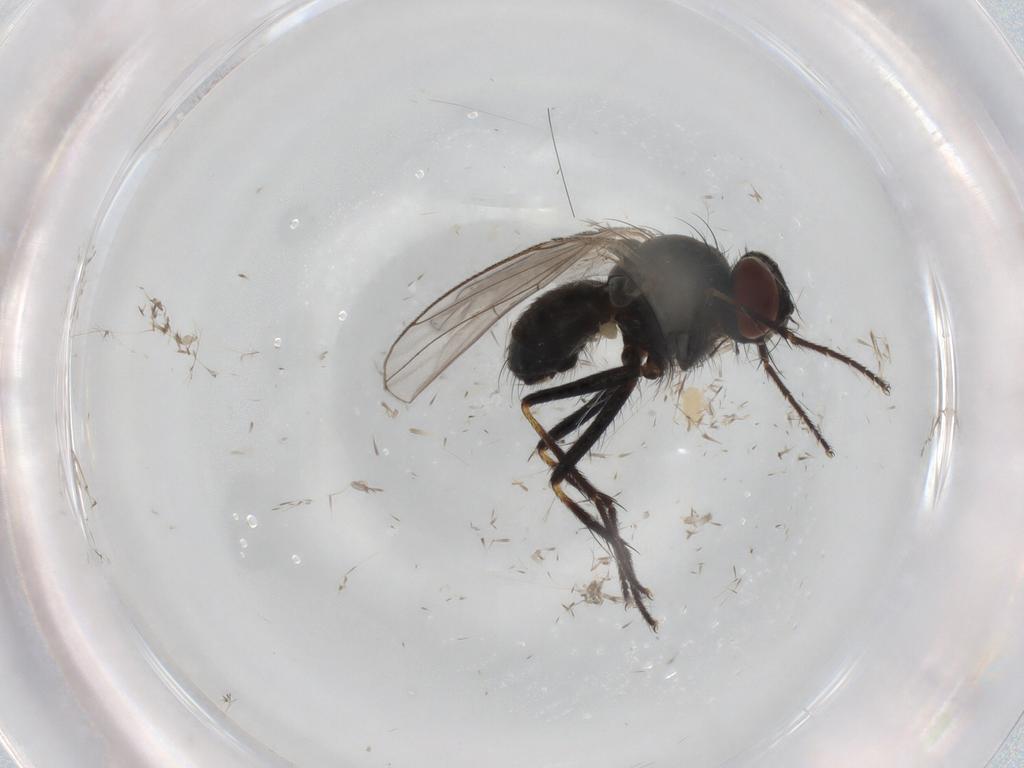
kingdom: Animalia
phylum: Arthropoda
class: Insecta
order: Diptera
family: Muscidae
